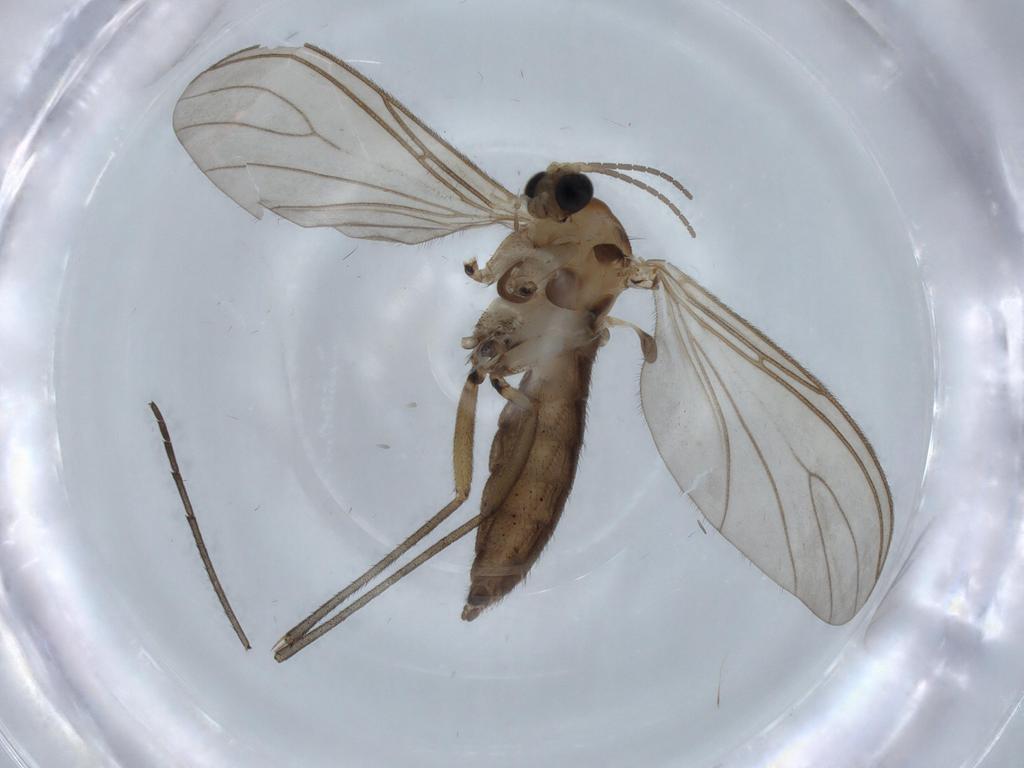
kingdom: Animalia
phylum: Arthropoda
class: Insecta
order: Diptera
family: Sciaridae
